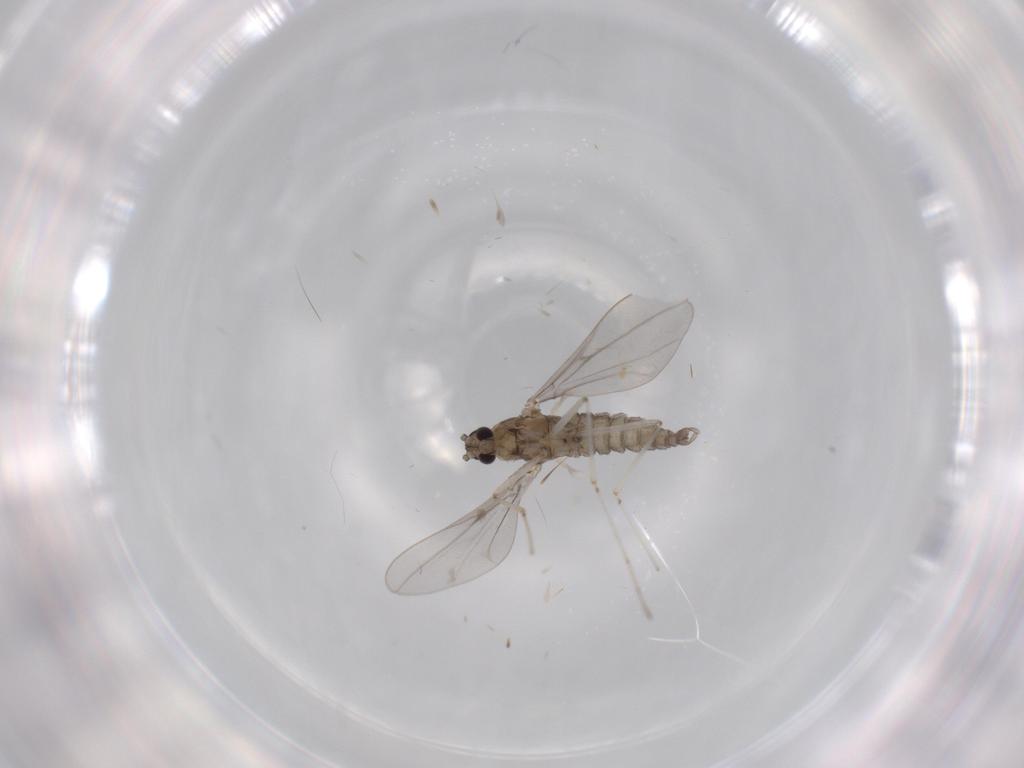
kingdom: Animalia
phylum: Arthropoda
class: Insecta
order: Diptera
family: Cecidomyiidae
